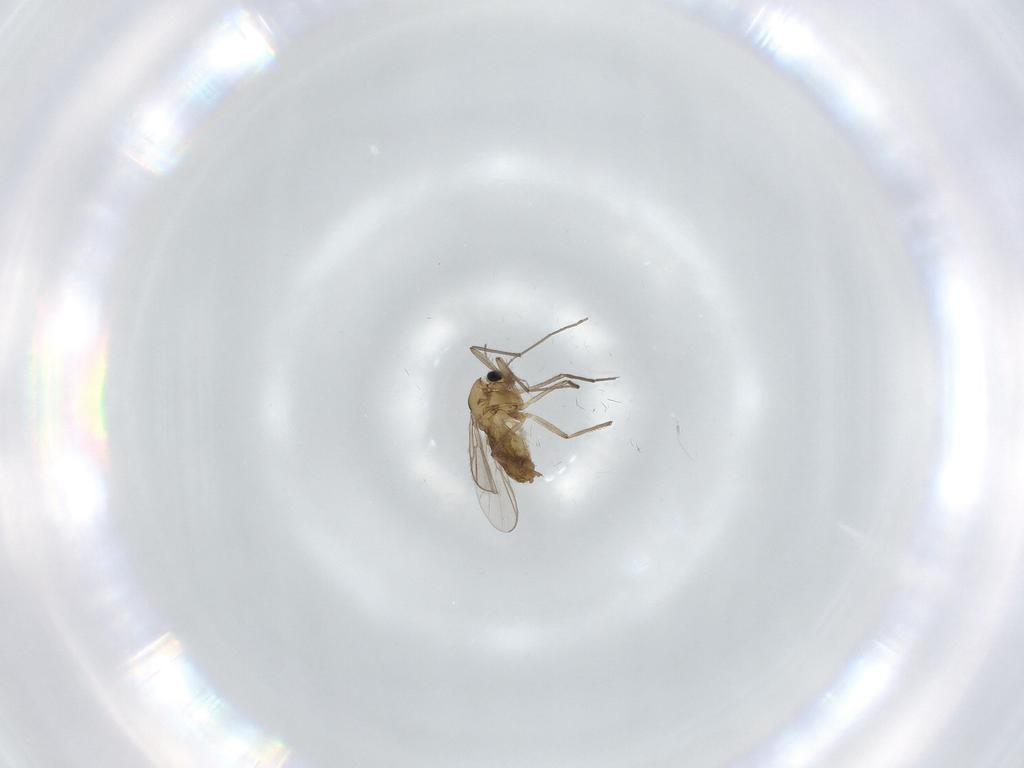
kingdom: Animalia
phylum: Arthropoda
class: Insecta
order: Diptera
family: Chironomidae
